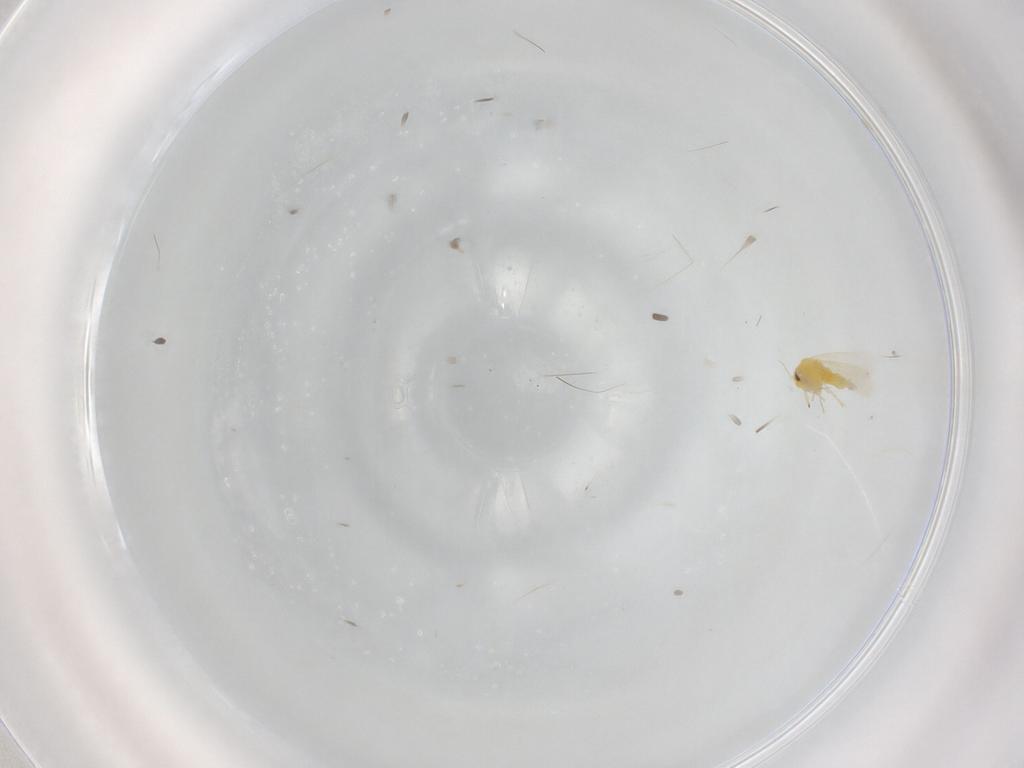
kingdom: Animalia
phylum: Arthropoda
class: Insecta
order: Hemiptera
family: Aleyrodidae
